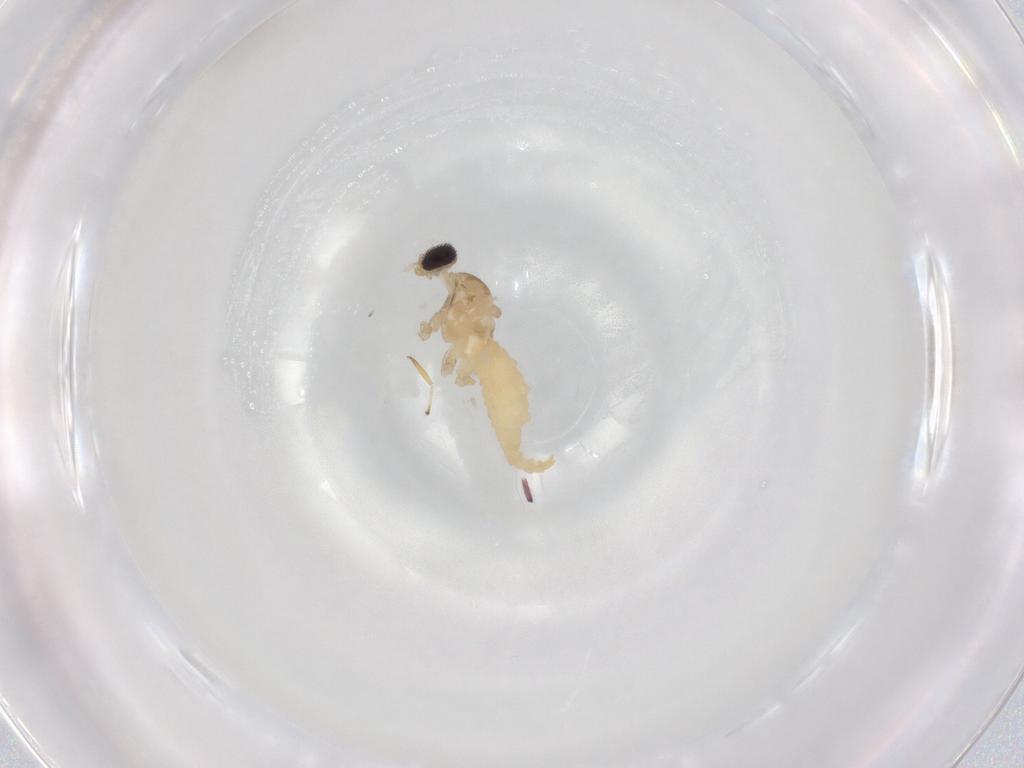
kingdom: Animalia
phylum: Arthropoda
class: Insecta
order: Diptera
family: Cecidomyiidae
